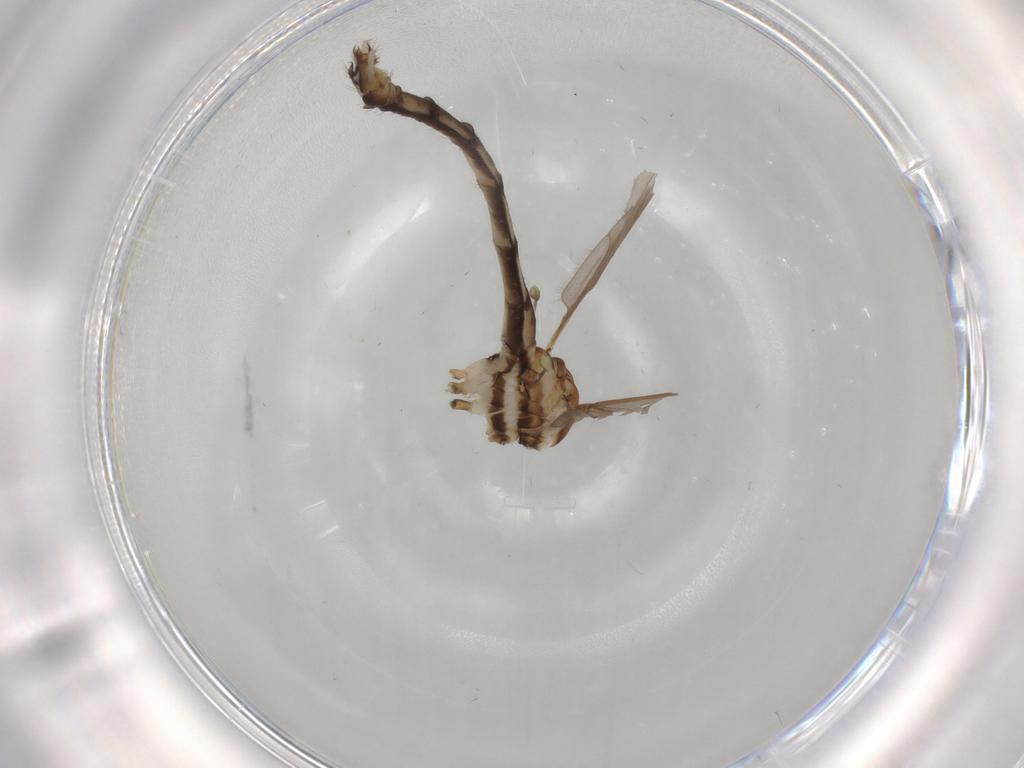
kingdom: Animalia
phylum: Arthropoda
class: Insecta
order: Diptera
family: Limoniidae
